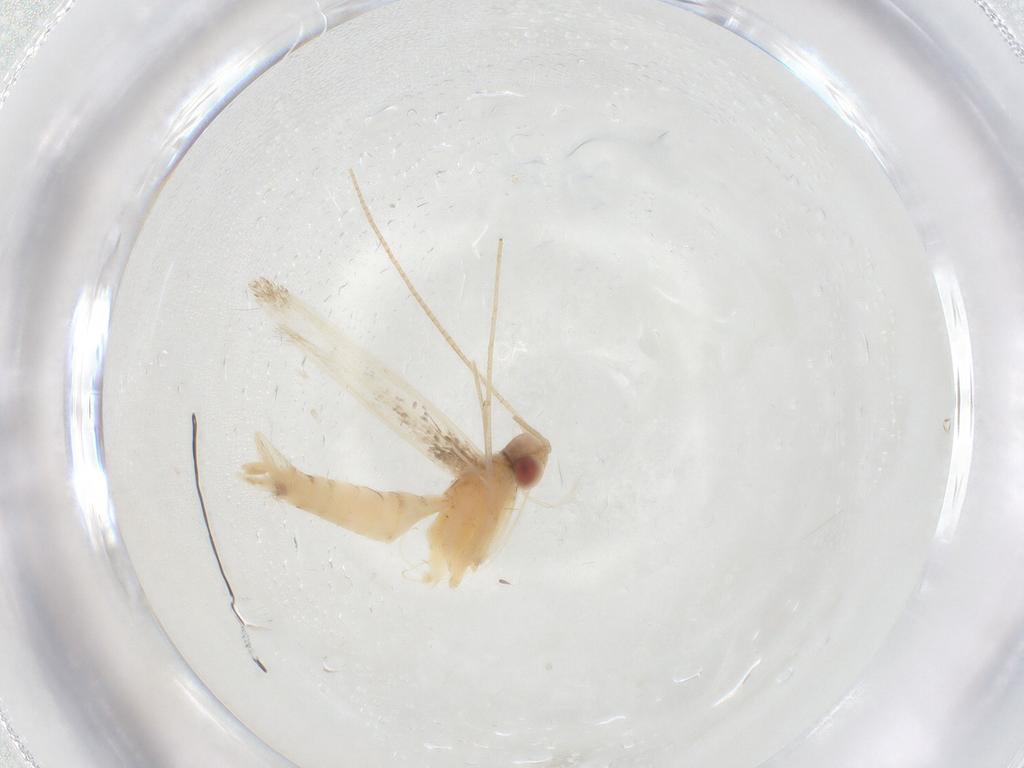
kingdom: Animalia
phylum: Arthropoda
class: Insecta
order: Lepidoptera
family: Gracillariidae
